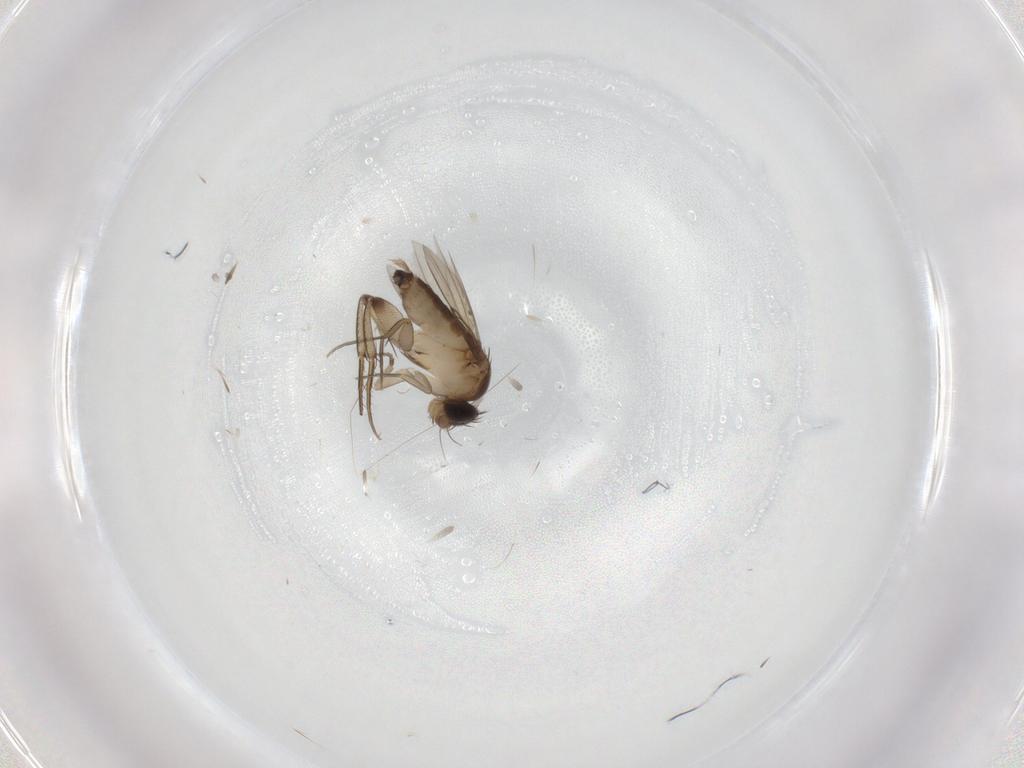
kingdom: Animalia
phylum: Arthropoda
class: Insecta
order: Diptera
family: Phoridae
